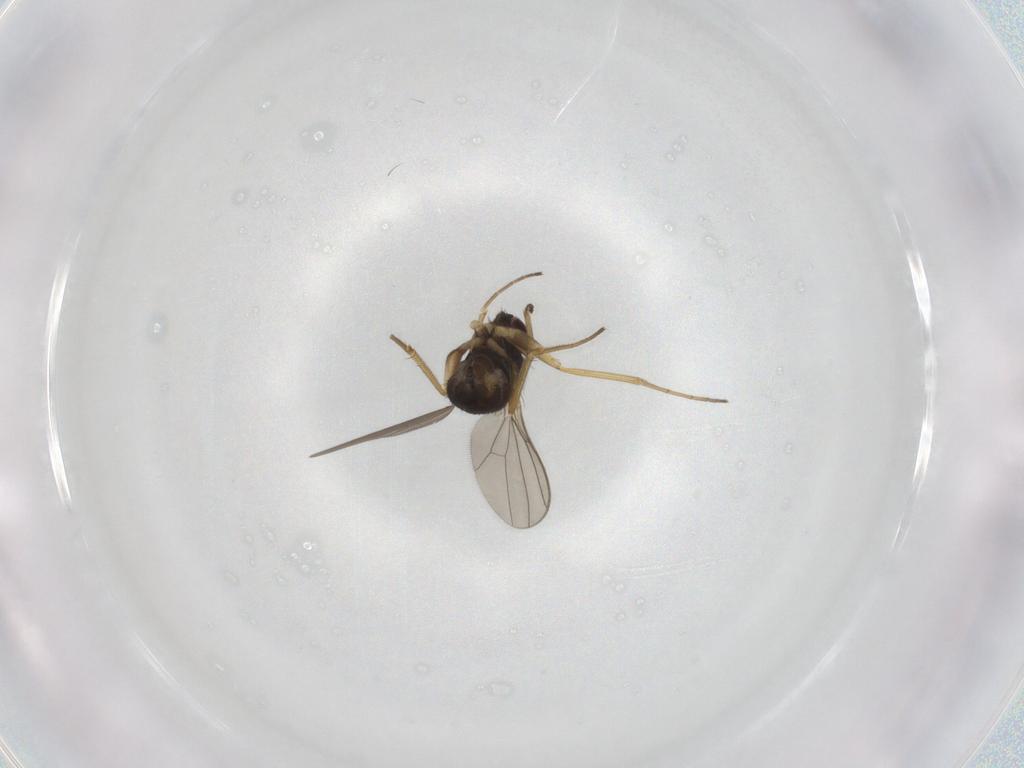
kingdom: Animalia
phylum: Arthropoda
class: Insecta
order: Diptera
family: Dolichopodidae
